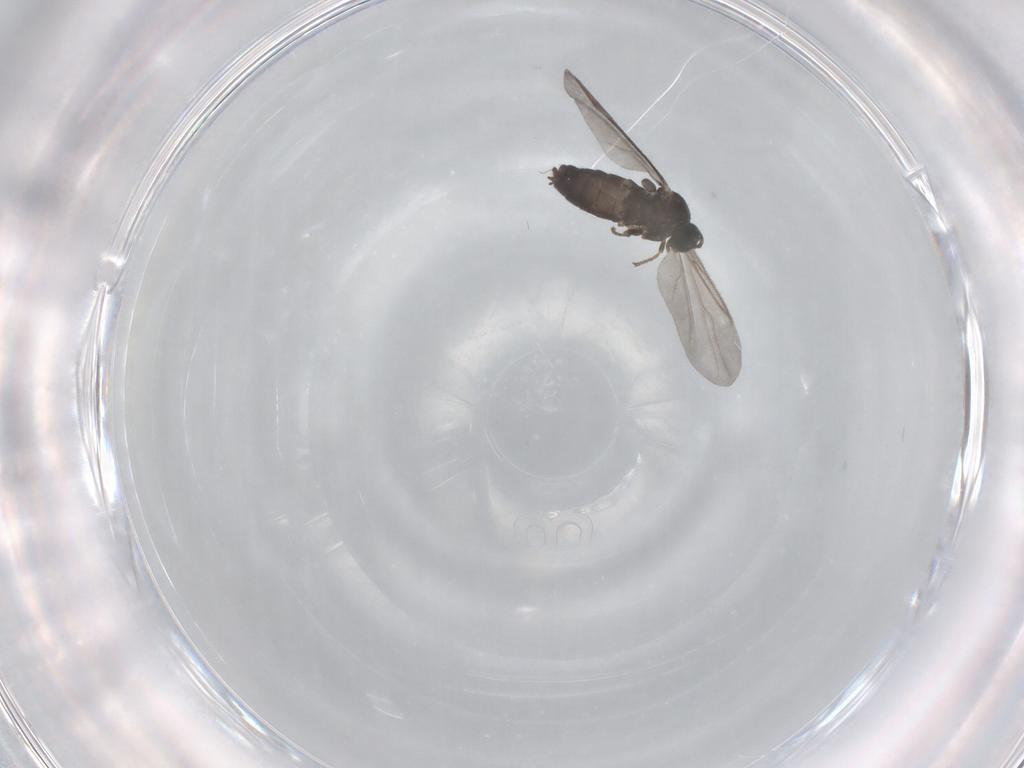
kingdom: Animalia
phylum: Arthropoda
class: Insecta
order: Diptera
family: Scatopsidae
